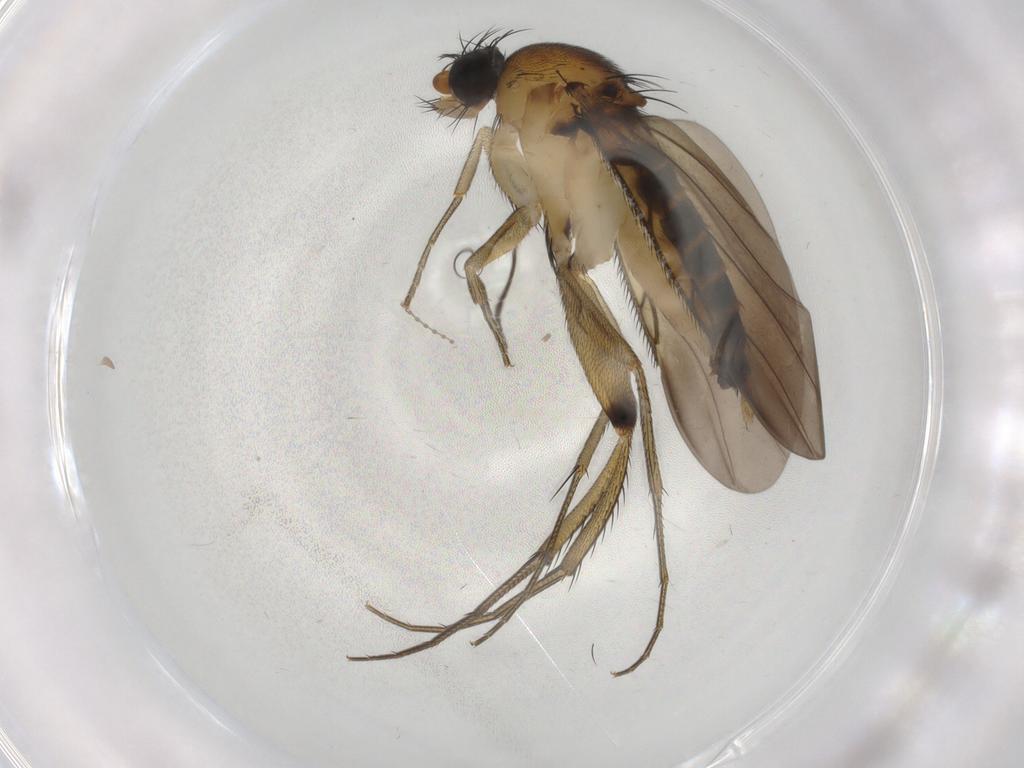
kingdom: Animalia
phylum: Arthropoda
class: Insecta
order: Diptera
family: Phoridae
